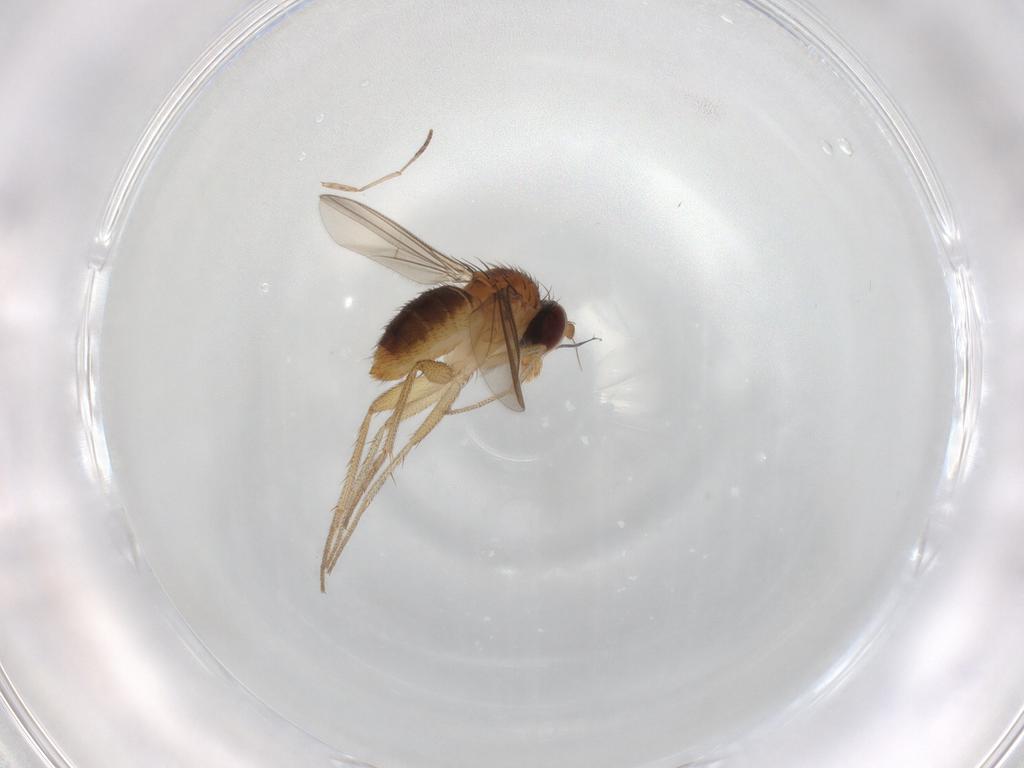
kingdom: Animalia
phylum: Arthropoda
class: Insecta
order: Diptera
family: Dolichopodidae
